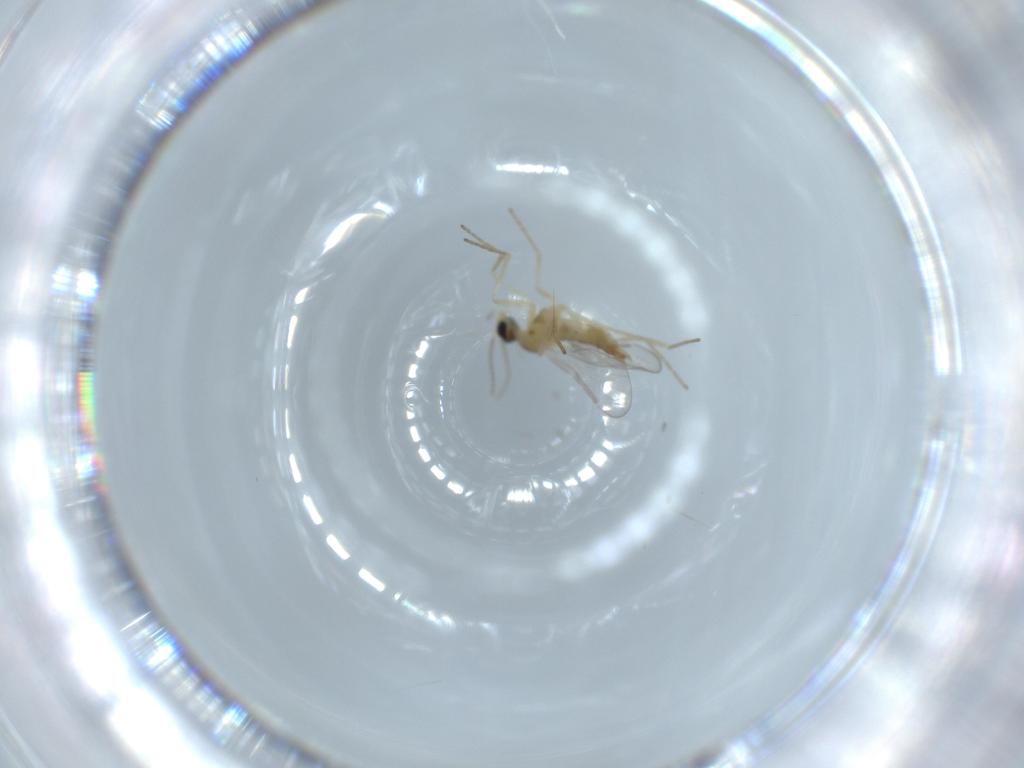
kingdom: Animalia
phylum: Arthropoda
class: Insecta
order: Diptera
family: Cecidomyiidae
